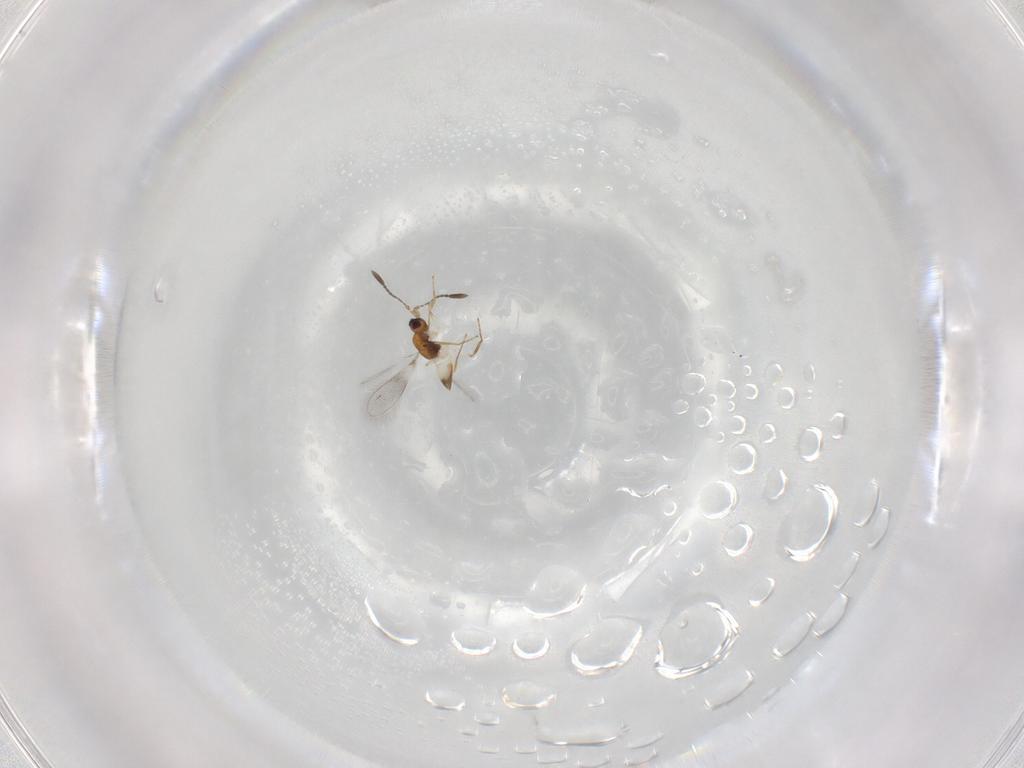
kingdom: Animalia
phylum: Arthropoda
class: Insecta
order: Hymenoptera
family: Mymaridae
